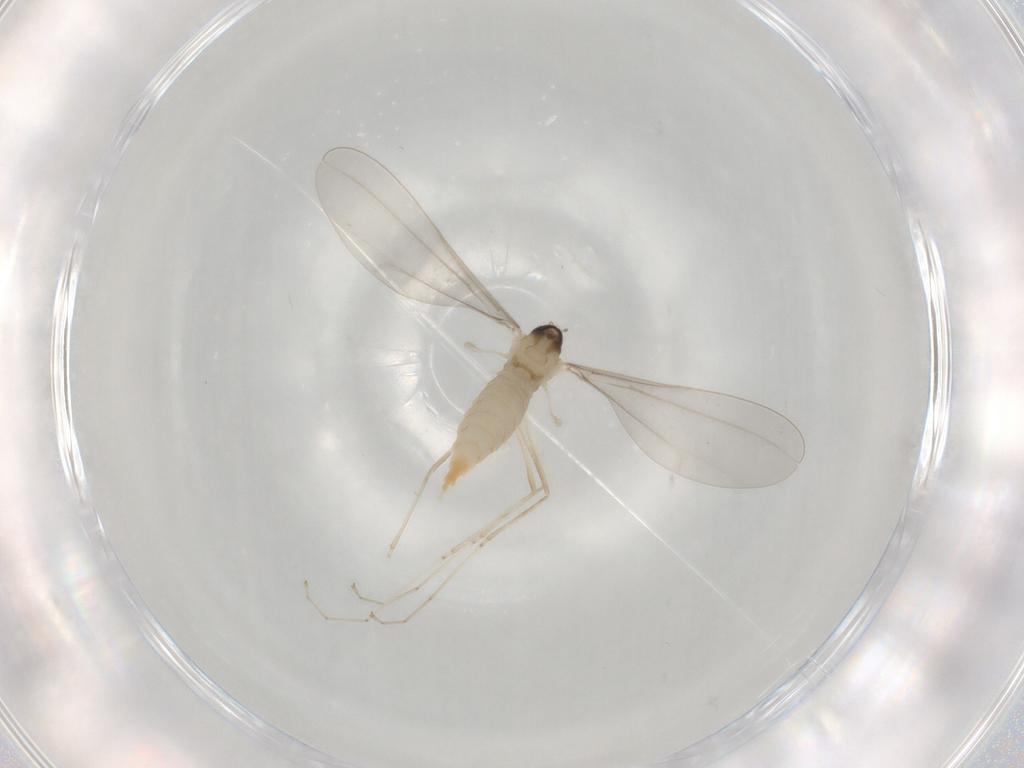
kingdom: Animalia
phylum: Arthropoda
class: Insecta
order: Diptera
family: Cecidomyiidae
